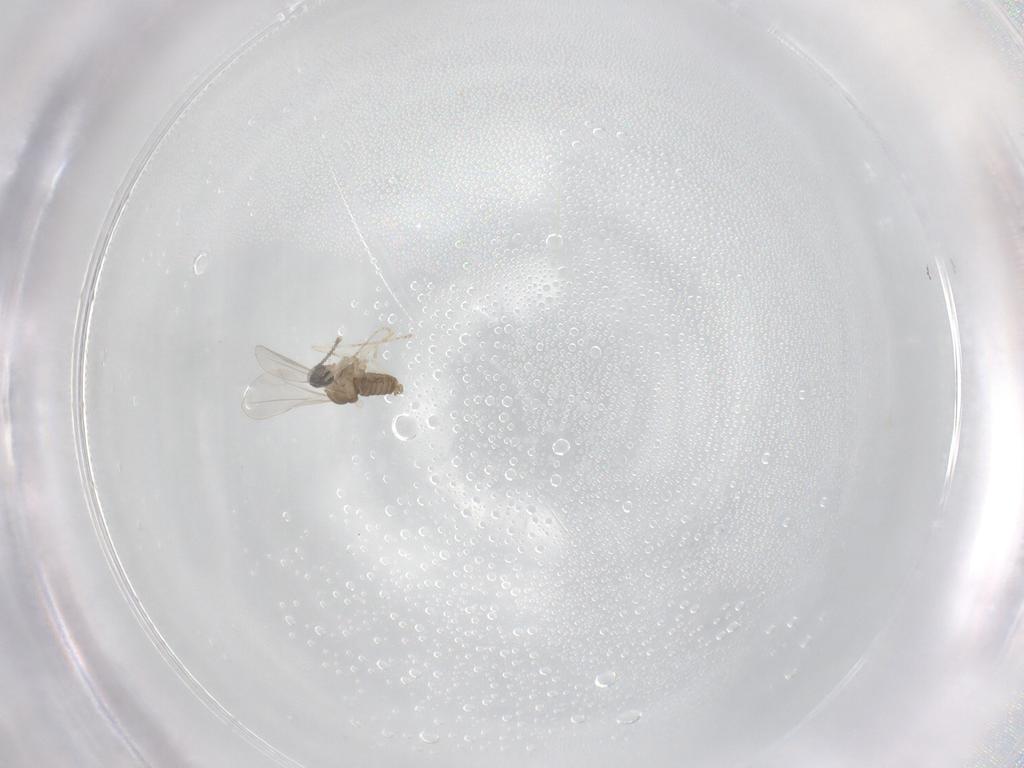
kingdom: Animalia
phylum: Arthropoda
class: Insecta
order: Diptera
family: Cecidomyiidae
